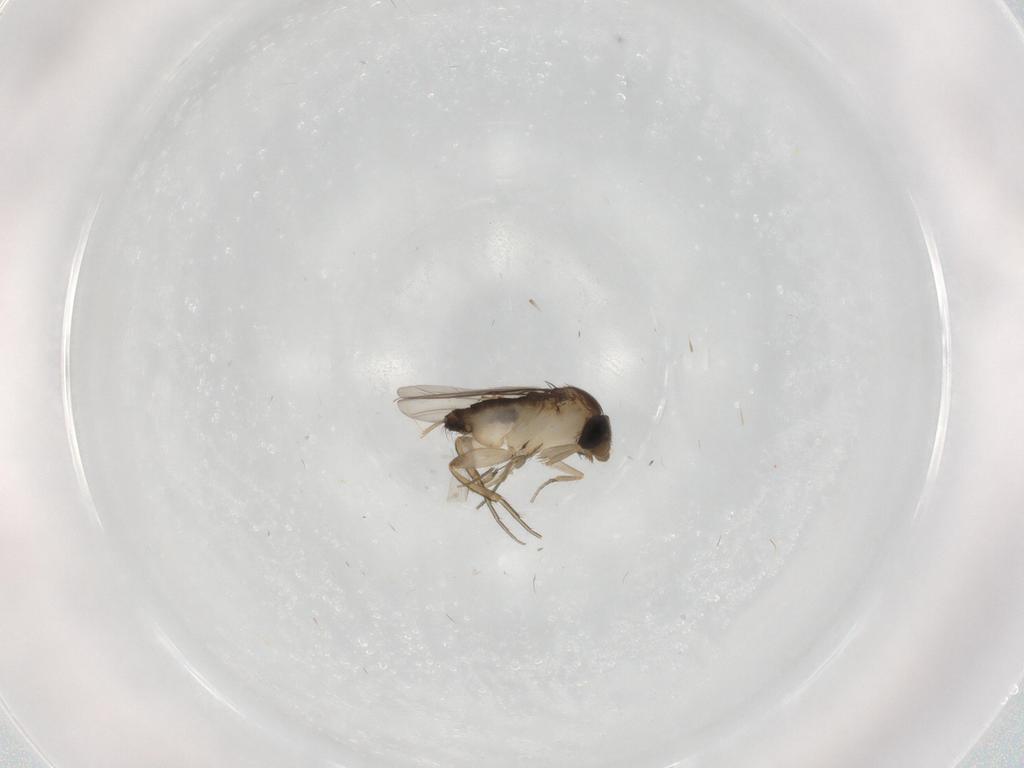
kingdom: Animalia
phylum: Arthropoda
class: Insecta
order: Diptera
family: Phoridae
